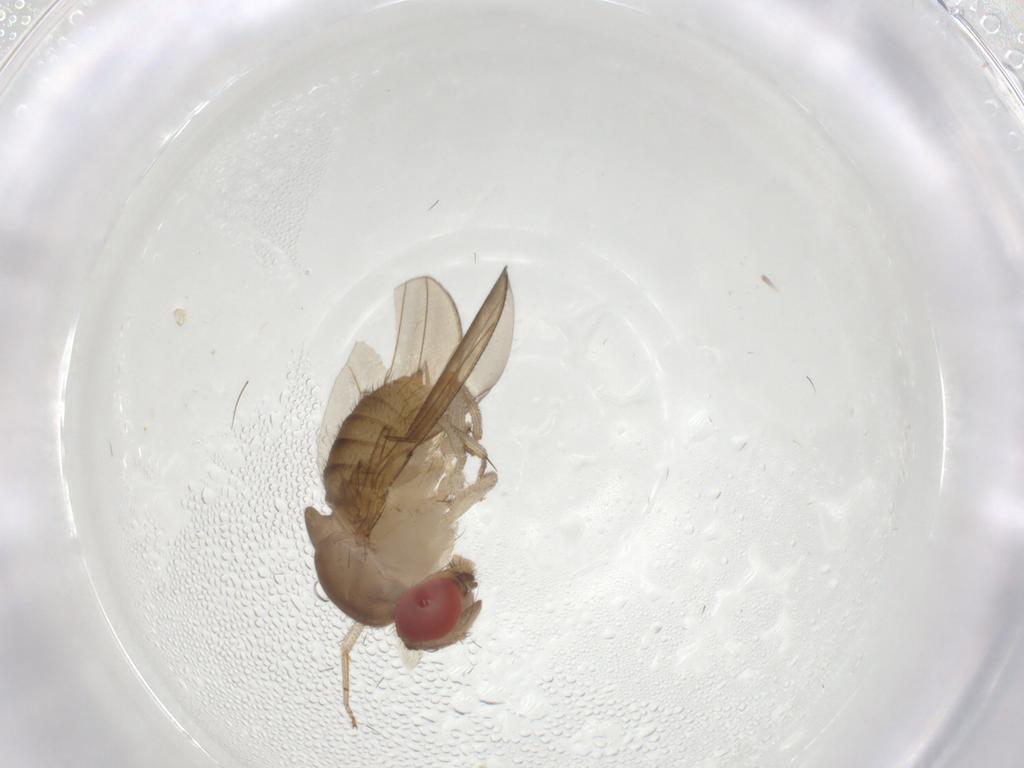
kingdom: Animalia
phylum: Arthropoda
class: Insecta
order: Diptera
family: Drosophilidae
